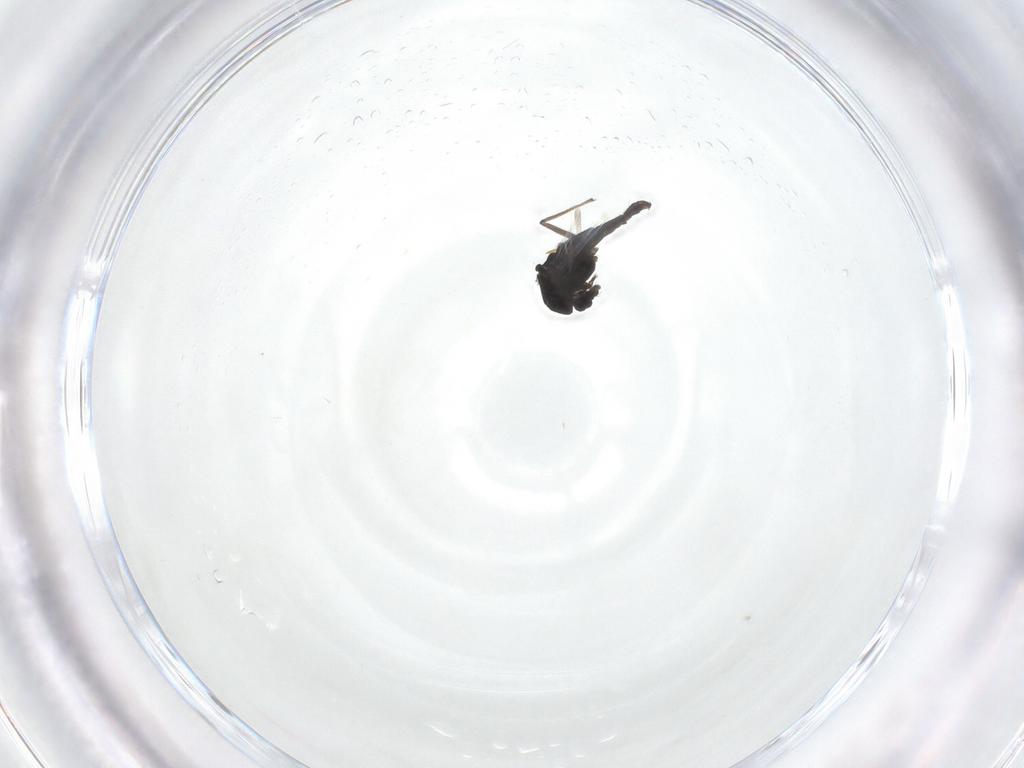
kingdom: Animalia
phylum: Arthropoda
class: Insecta
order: Diptera
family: Chironomidae
